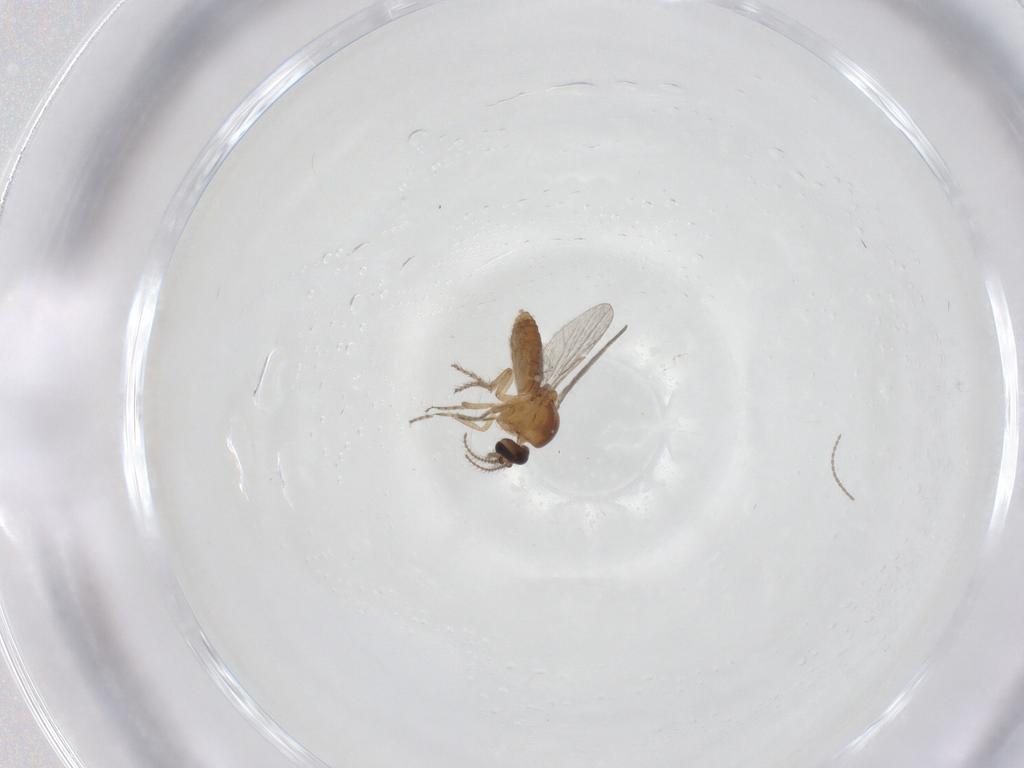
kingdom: Animalia
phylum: Arthropoda
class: Insecta
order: Diptera
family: Ceratopogonidae
